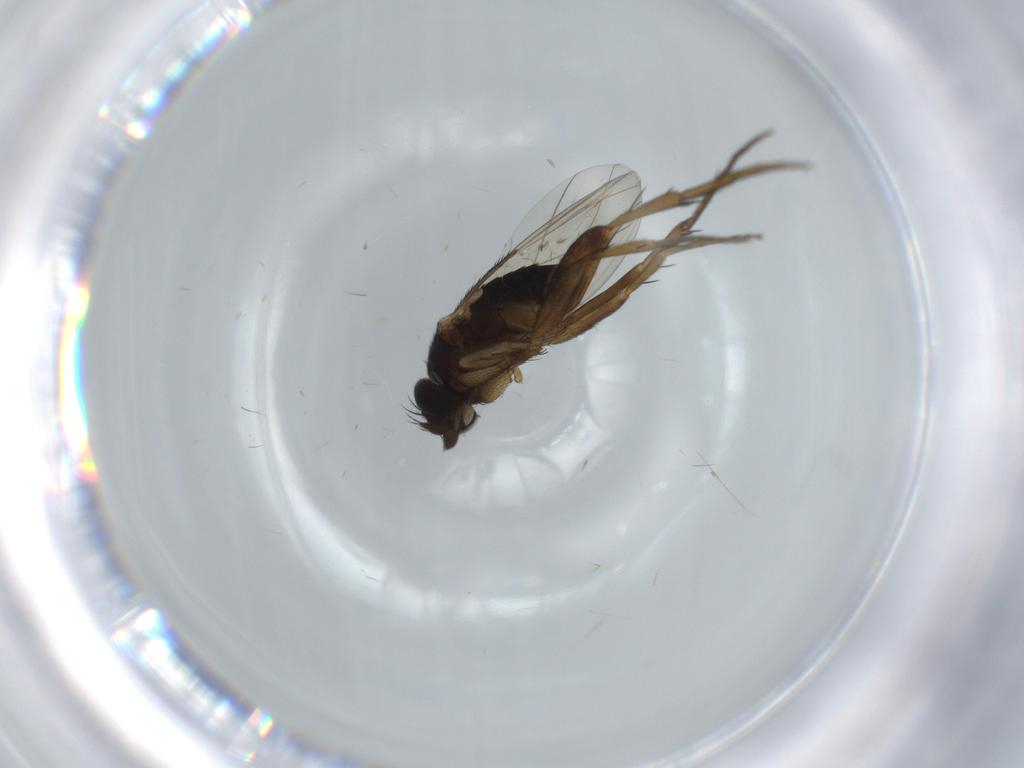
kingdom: Animalia
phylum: Arthropoda
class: Insecta
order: Diptera
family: Phoridae
